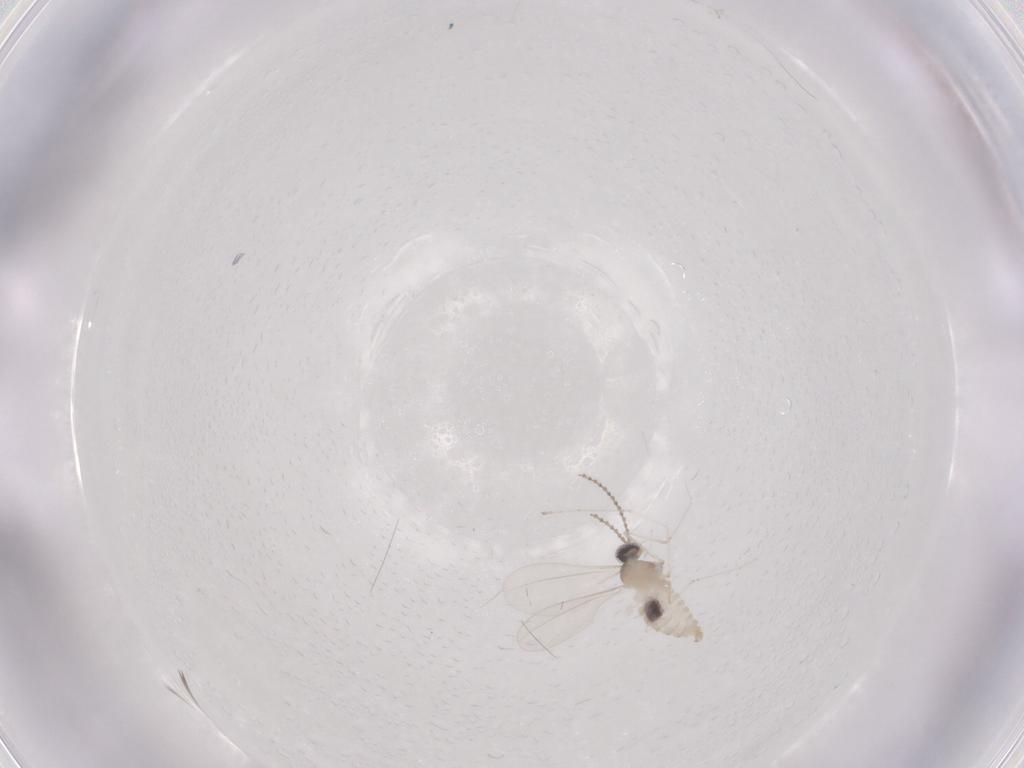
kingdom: Animalia
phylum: Arthropoda
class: Insecta
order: Diptera
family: Cecidomyiidae
